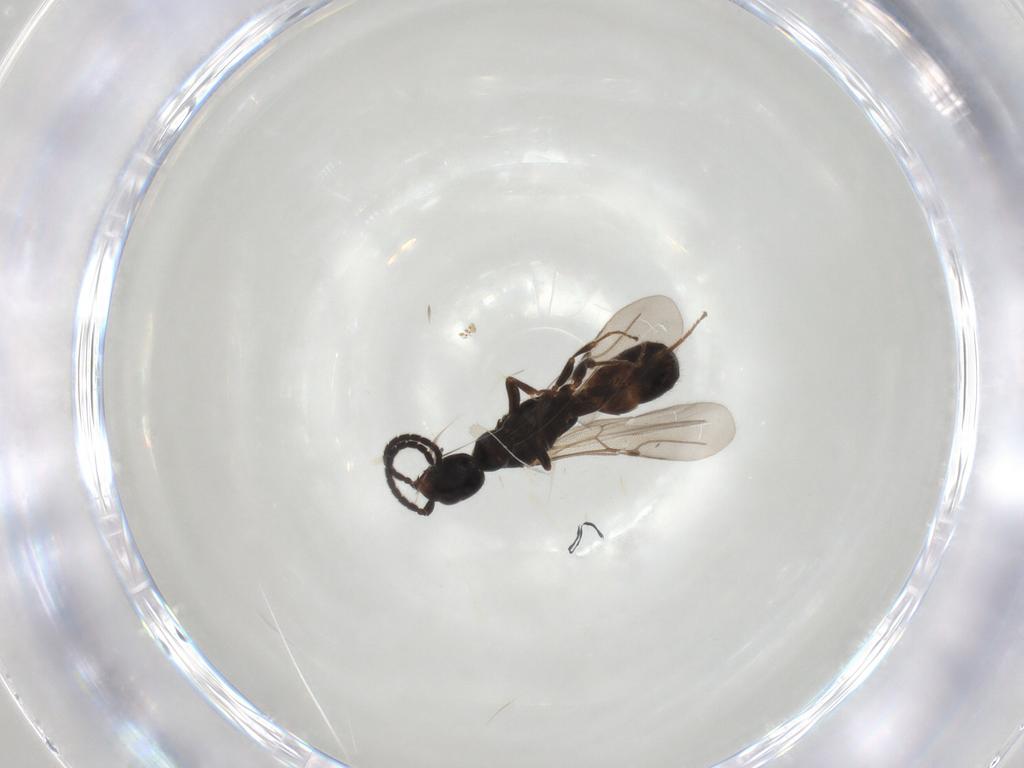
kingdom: Animalia
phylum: Arthropoda
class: Insecta
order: Hymenoptera
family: Bethylidae
